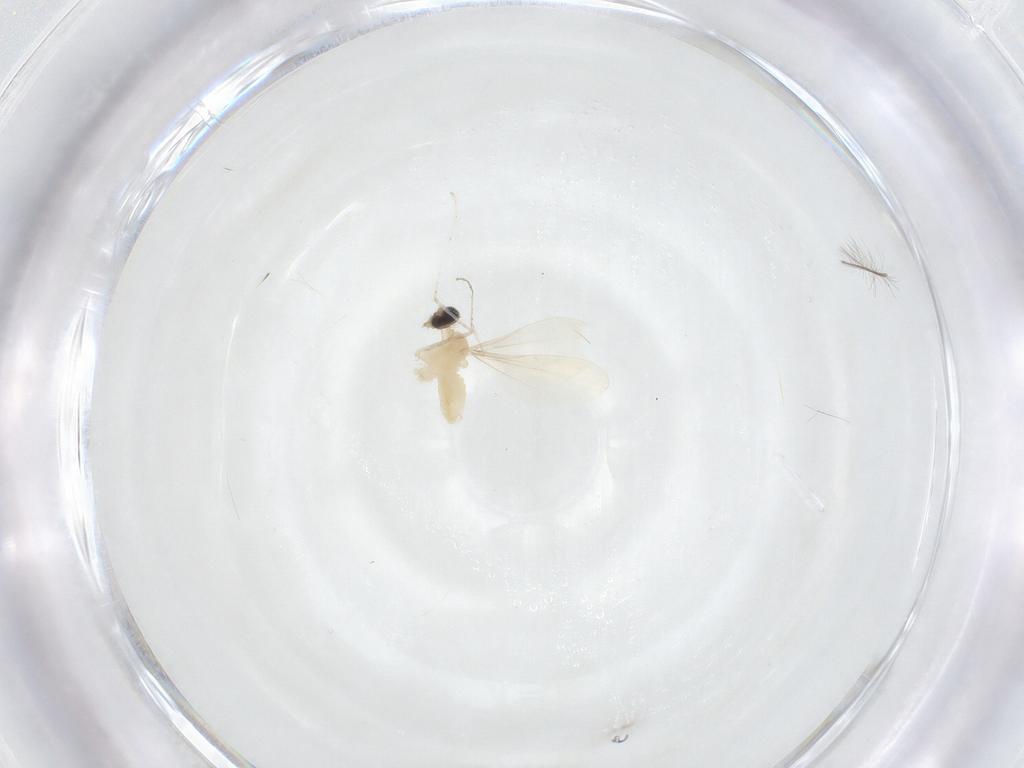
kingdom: Animalia
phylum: Arthropoda
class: Insecta
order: Diptera
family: Cecidomyiidae
